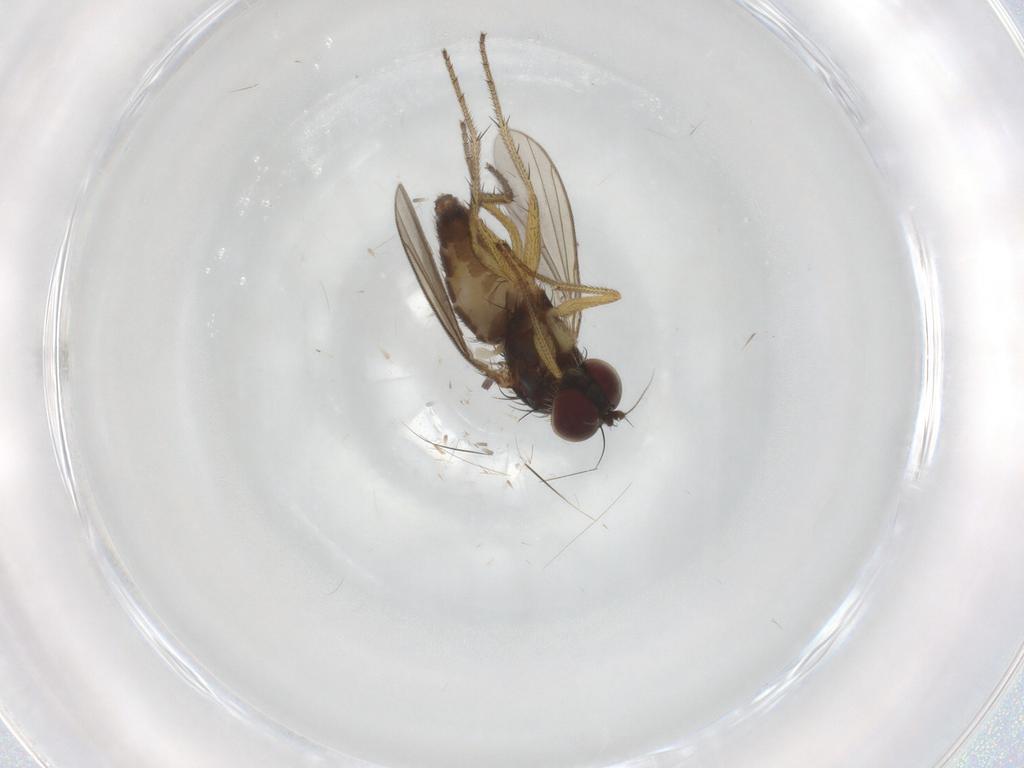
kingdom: Animalia
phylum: Arthropoda
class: Insecta
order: Diptera
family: Dolichopodidae
